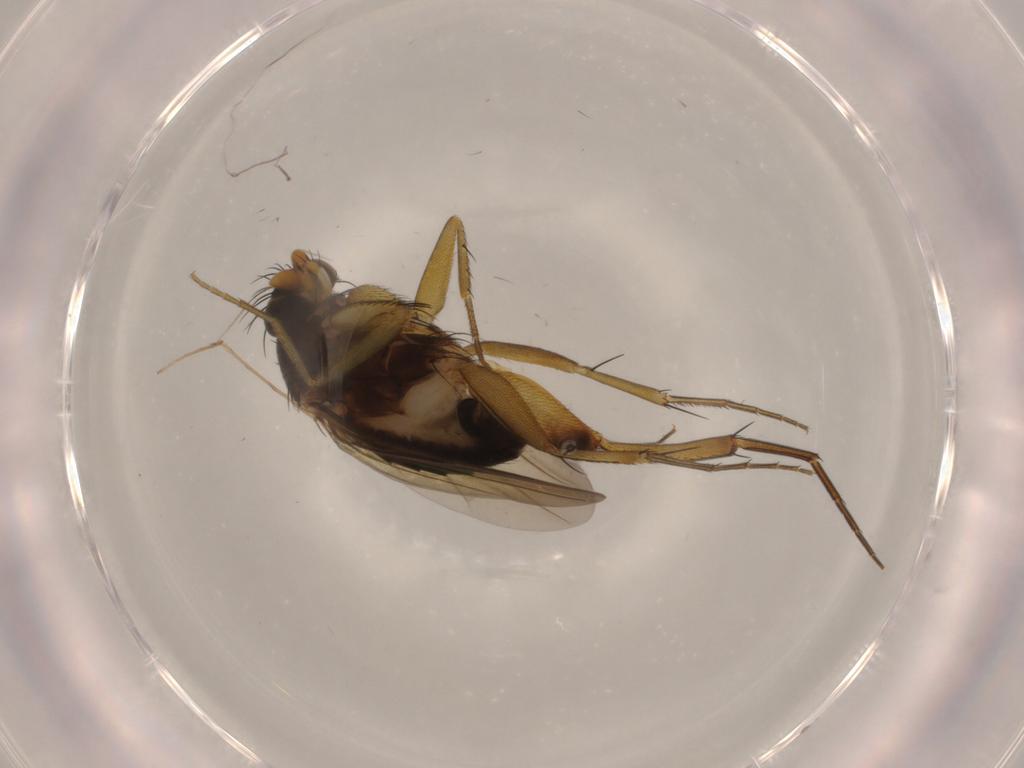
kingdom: Animalia
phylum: Arthropoda
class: Insecta
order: Diptera
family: Phoridae
